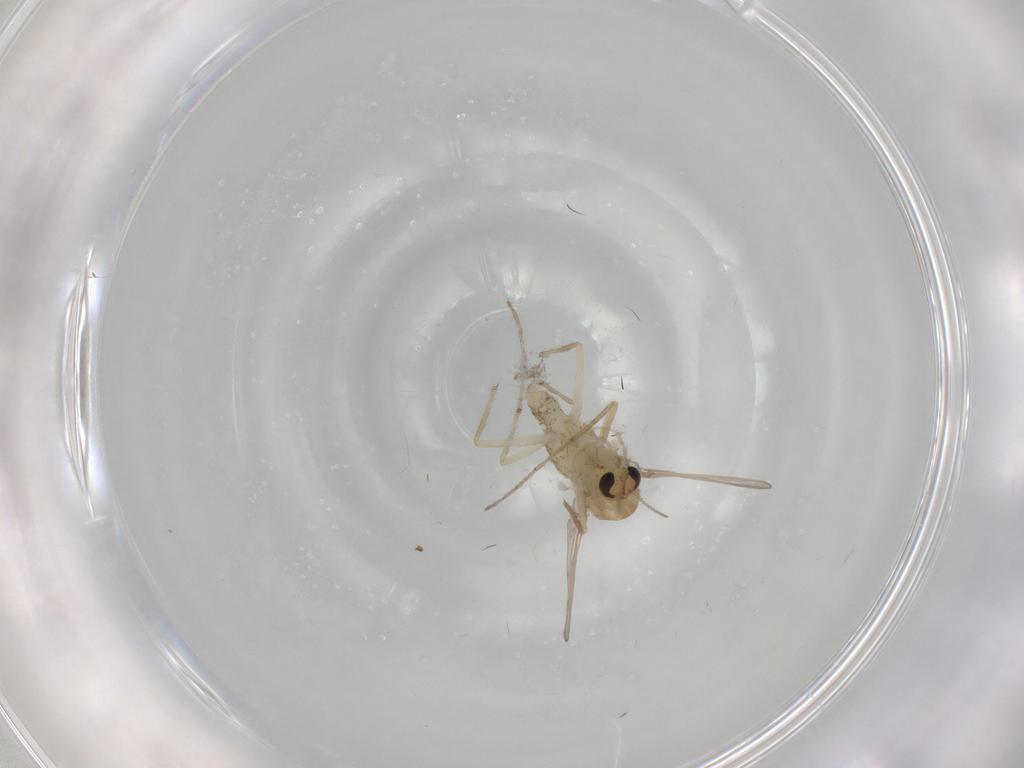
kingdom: Animalia
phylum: Arthropoda
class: Insecta
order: Diptera
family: Chironomidae
